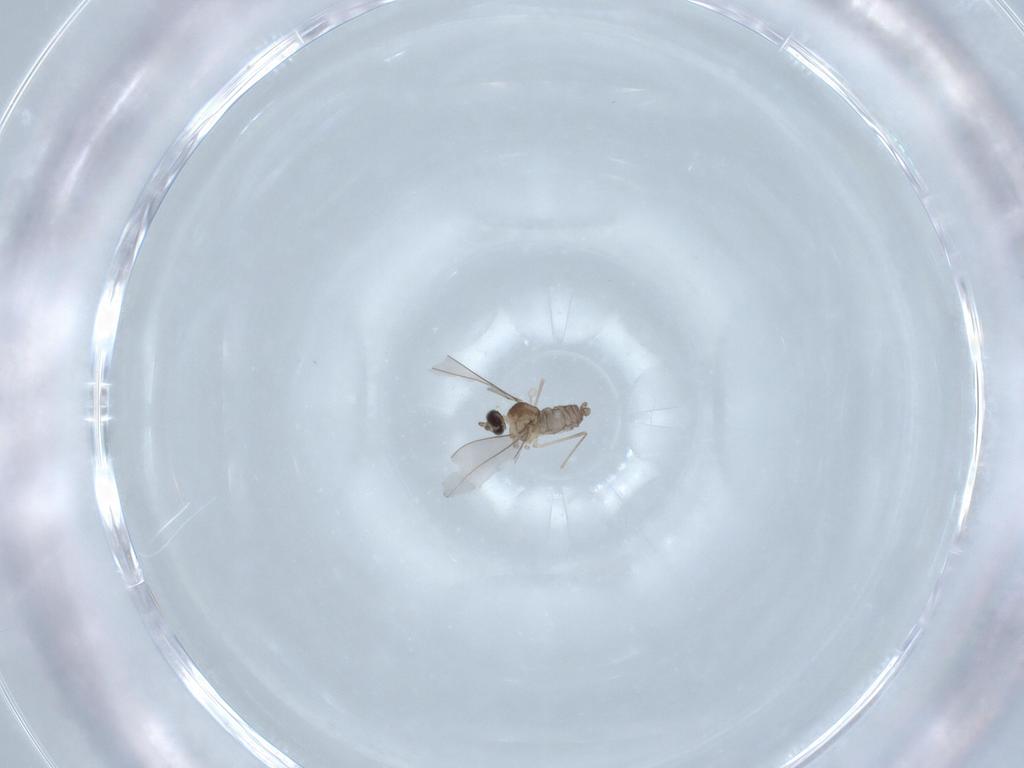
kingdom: Animalia
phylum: Arthropoda
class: Insecta
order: Diptera
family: Cecidomyiidae
